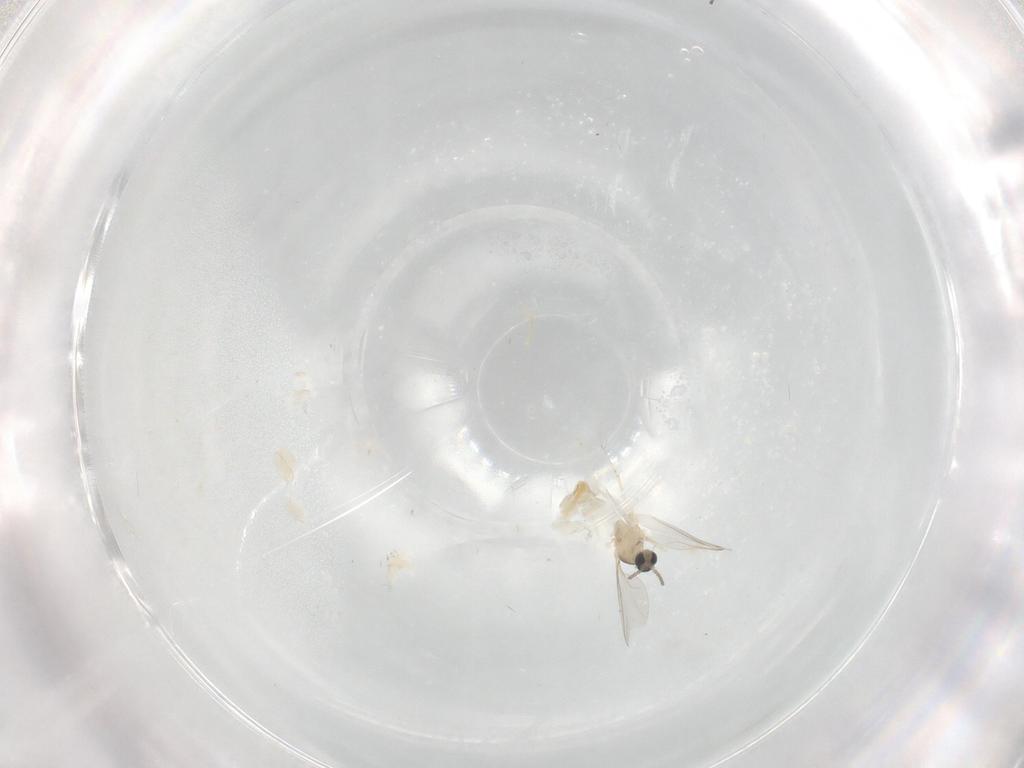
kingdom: Animalia
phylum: Arthropoda
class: Insecta
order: Diptera
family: Cecidomyiidae
